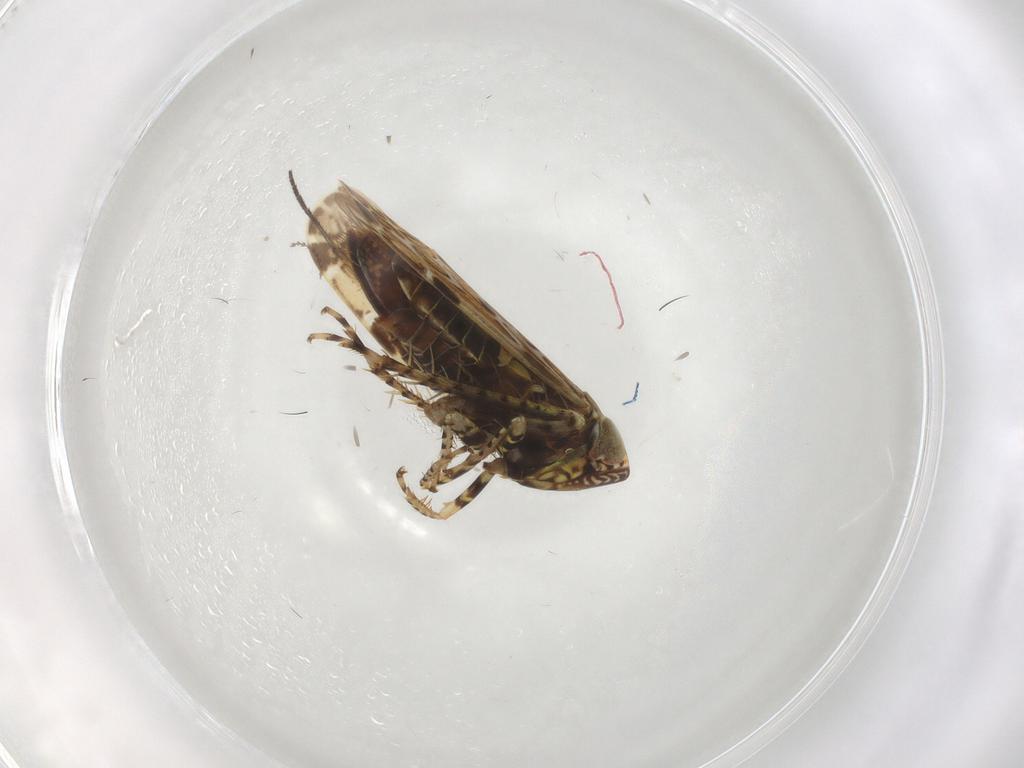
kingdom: Animalia
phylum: Arthropoda
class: Insecta
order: Hemiptera
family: Cicadellidae
